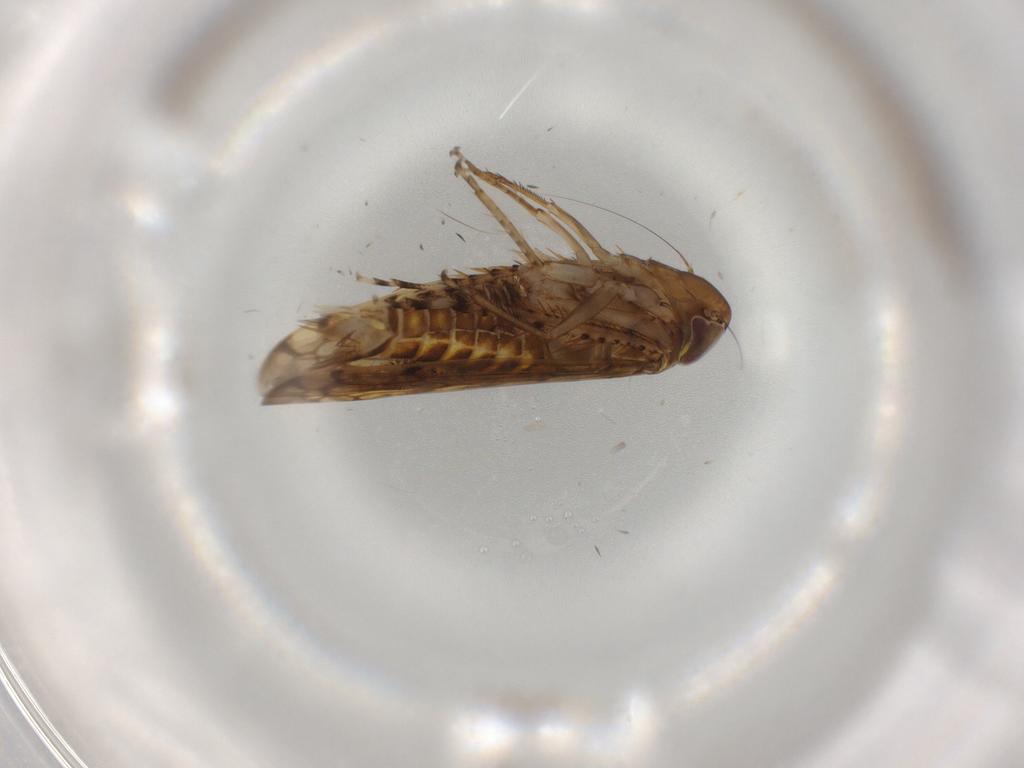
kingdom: Animalia
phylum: Arthropoda
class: Insecta
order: Hemiptera
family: Cicadellidae
